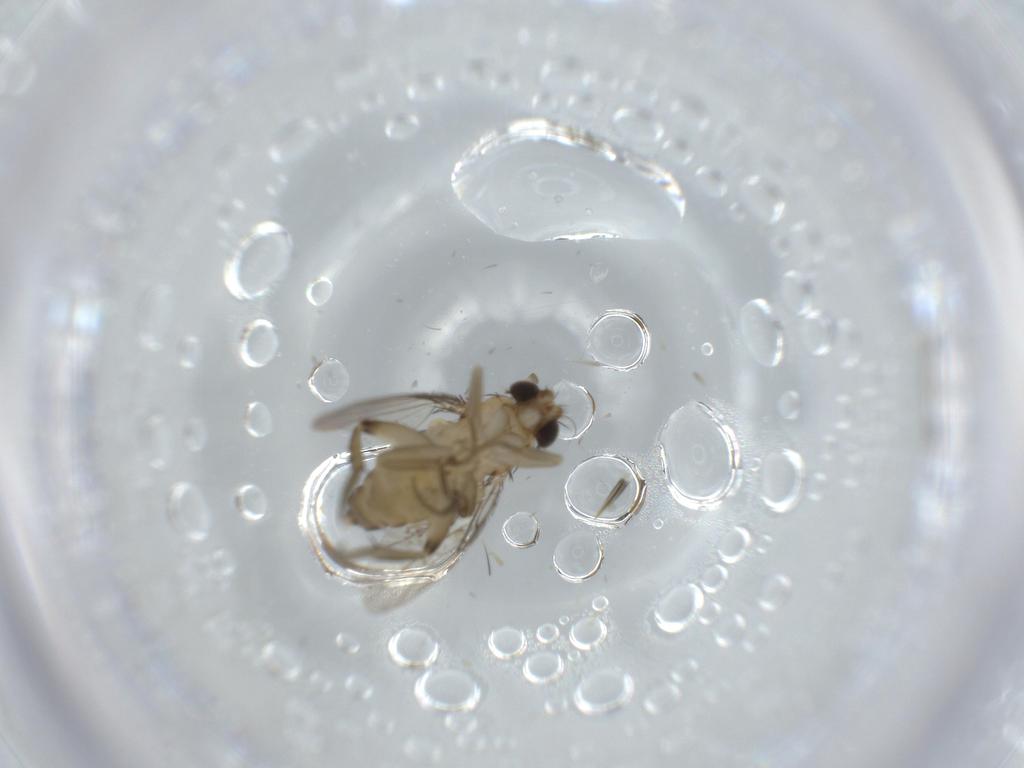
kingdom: Animalia
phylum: Arthropoda
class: Insecta
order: Diptera
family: Phoridae
